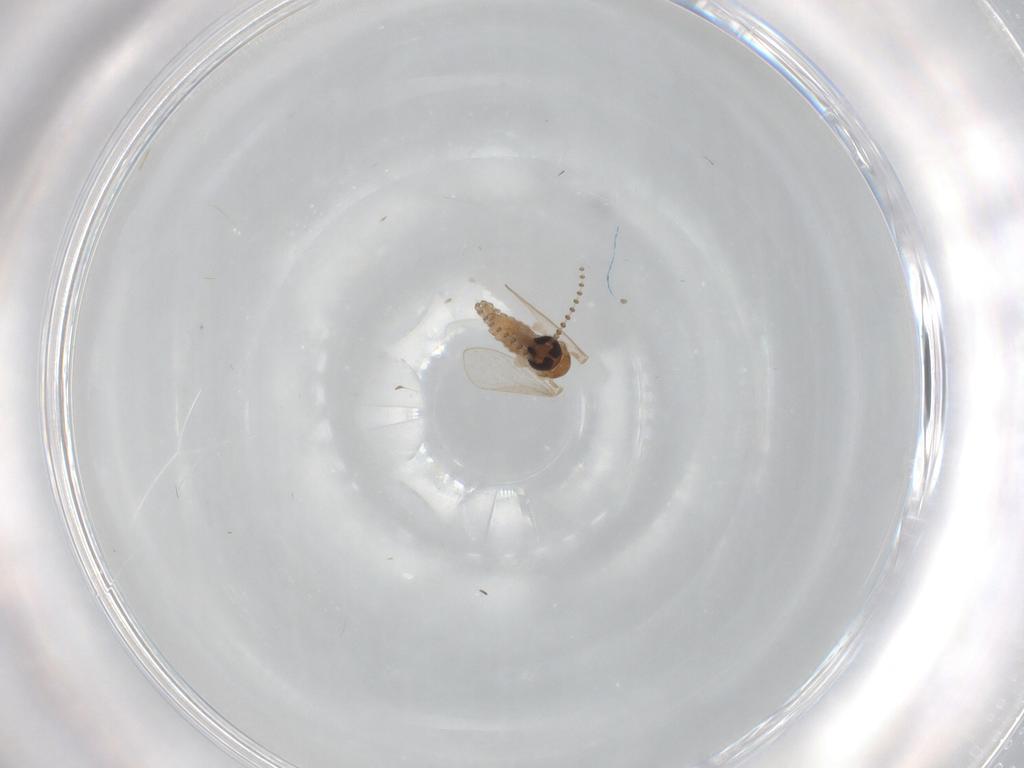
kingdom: Animalia
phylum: Arthropoda
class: Insecta
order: Diptera
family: Psychodidae
